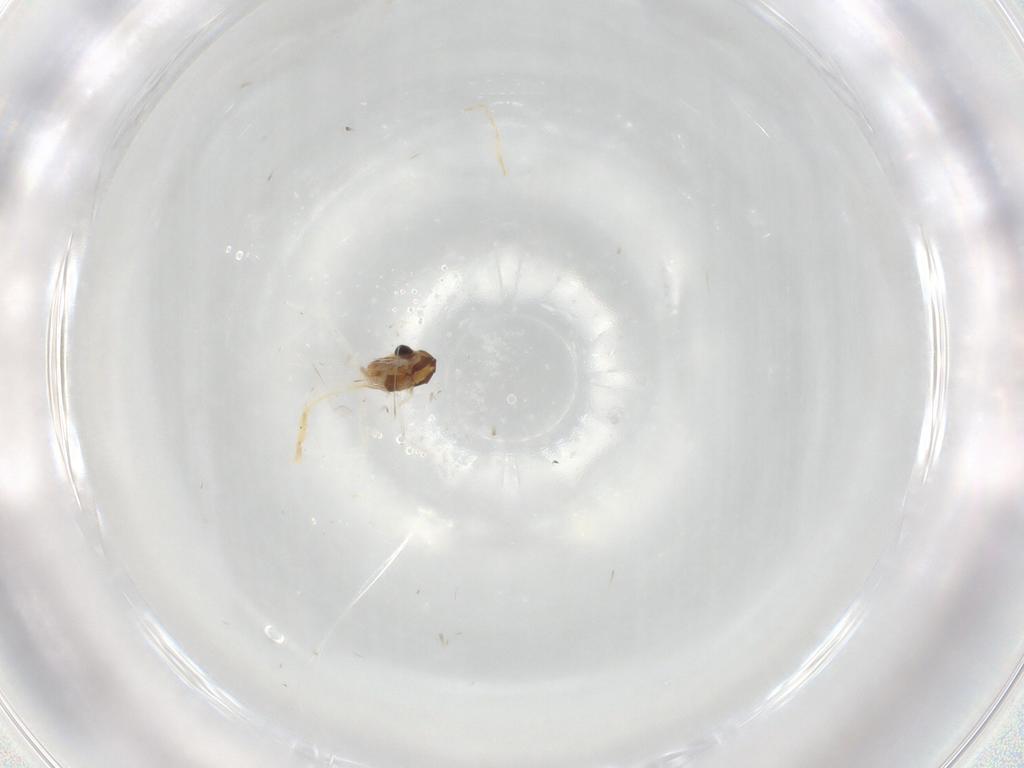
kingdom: Animalia
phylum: Arthropoda
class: Insecta
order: Diptera
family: Chironomidae
